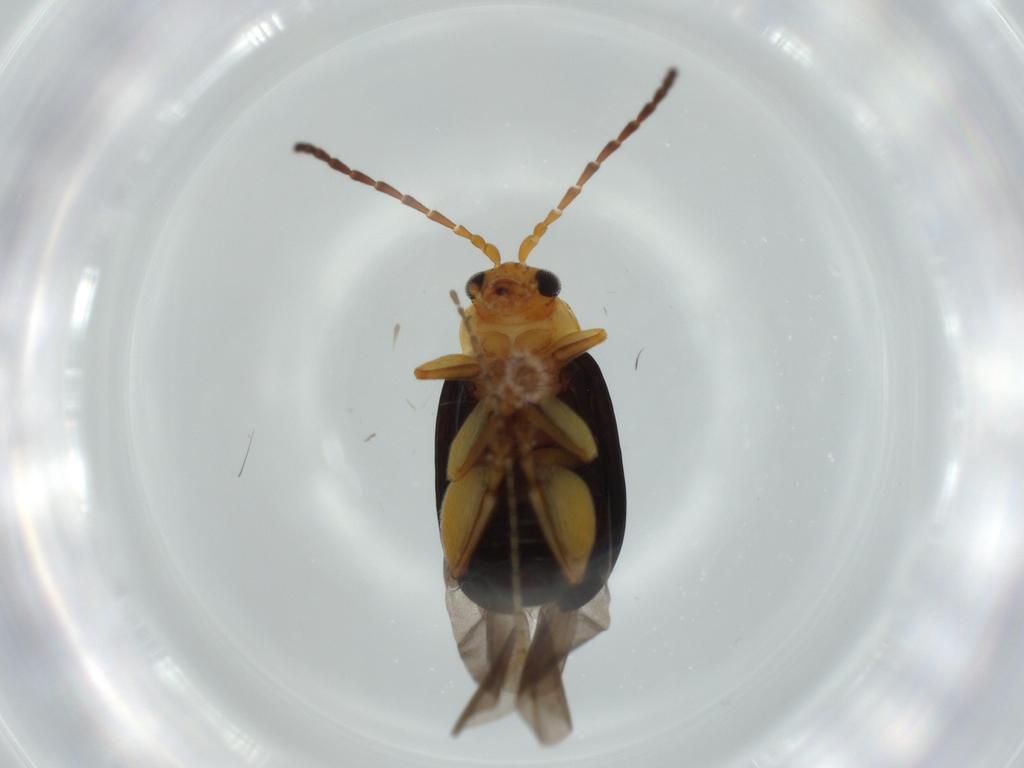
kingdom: Animalia
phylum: Arthropoda
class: Insecta
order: Coleoptera
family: Chrysomelidae
